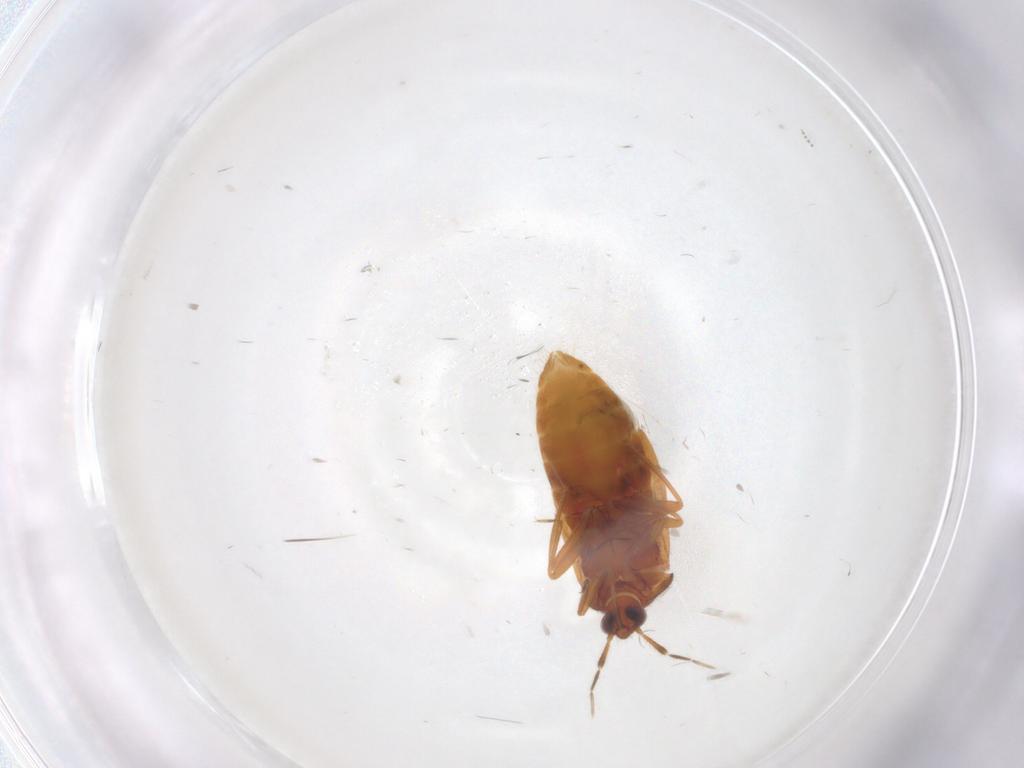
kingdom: Animalia
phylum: Arthropoda
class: Insecta
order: Hemiptera
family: Anthocoridae
